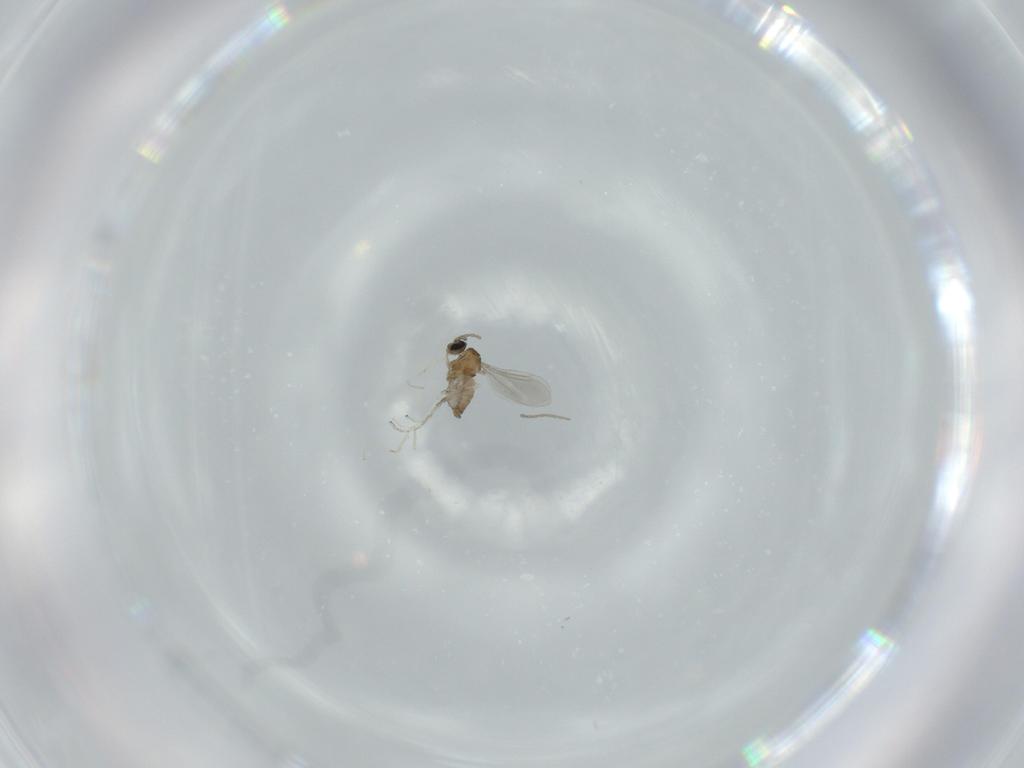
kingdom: Animalia
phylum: Arthropoda
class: Insecta
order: Diptera
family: Cecidomyiidae
